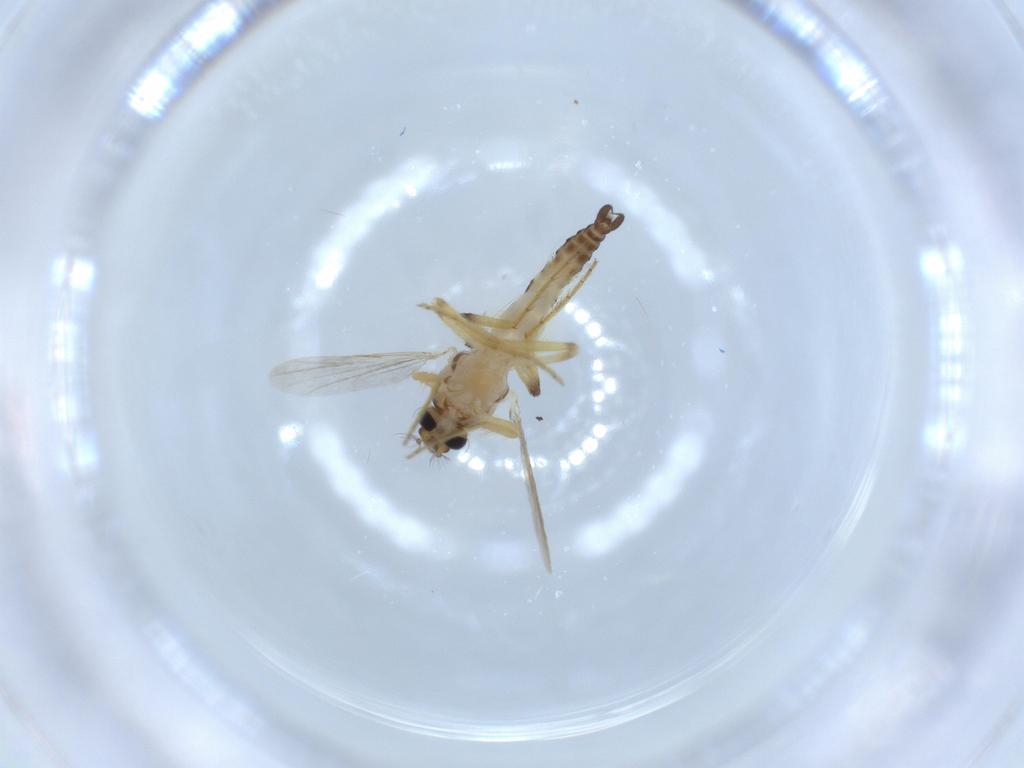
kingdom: Animalia
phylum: Arthropoda
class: Insecta
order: Diptera
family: Ceratopogonidae
